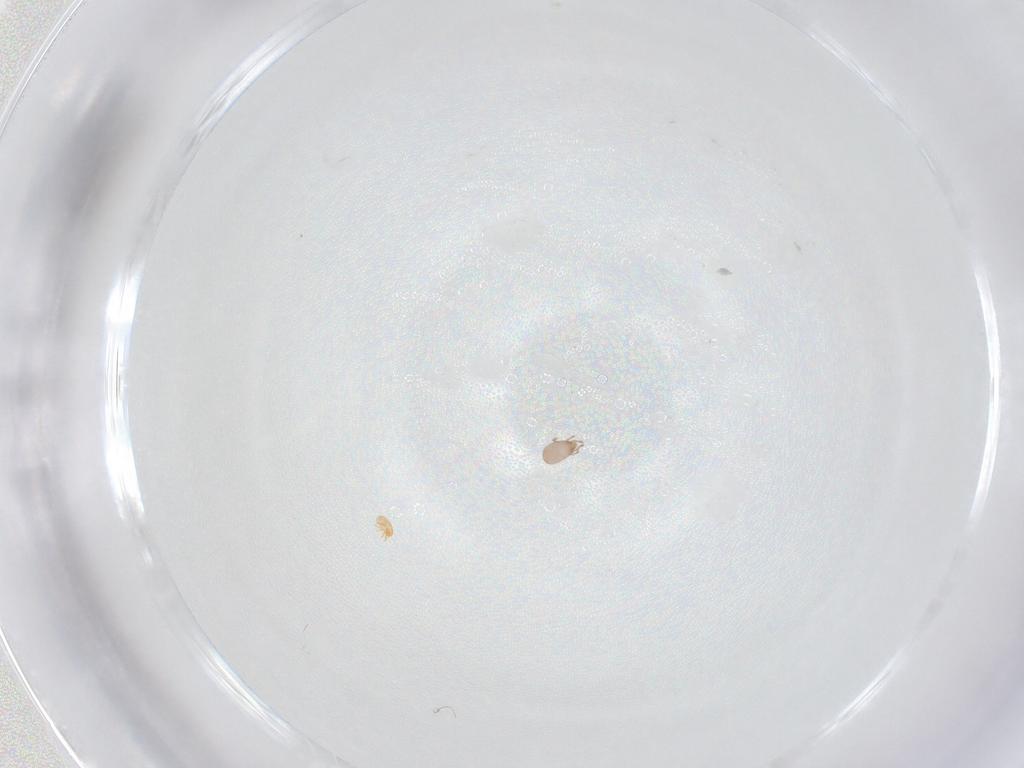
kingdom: Animalia
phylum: Arthropoda
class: Arachnida
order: Sarcoptiformes
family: Eremaeidae
